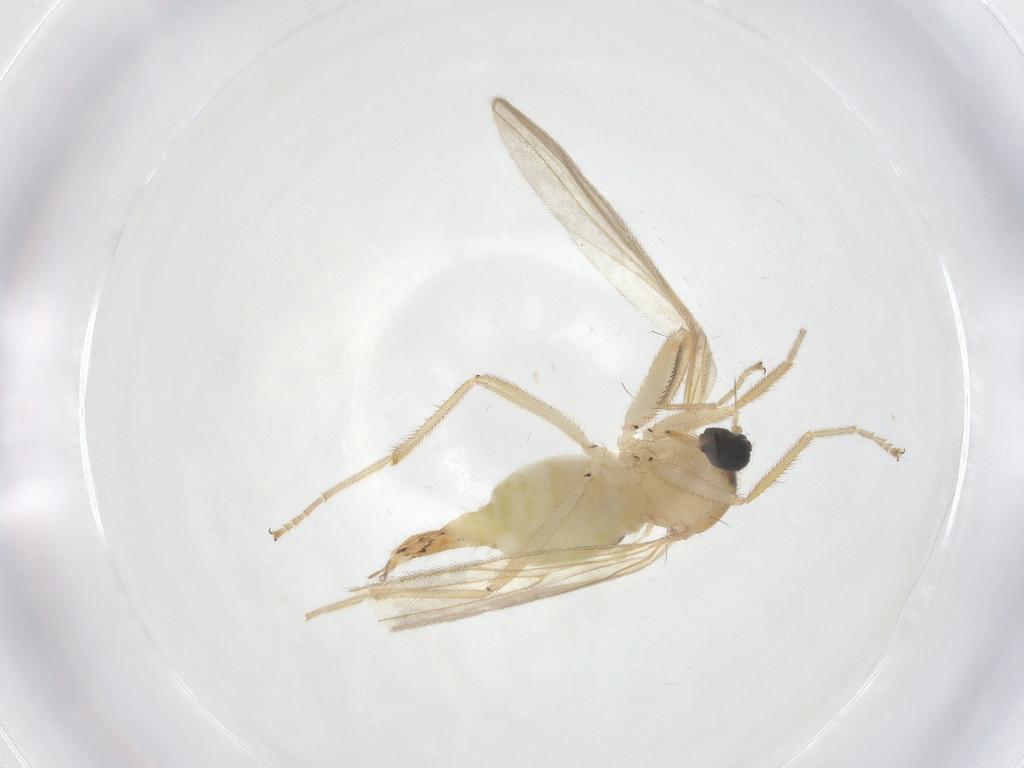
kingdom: Animalia
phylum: Arthropoda
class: Insecta
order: Diptera
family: Hybotidae
